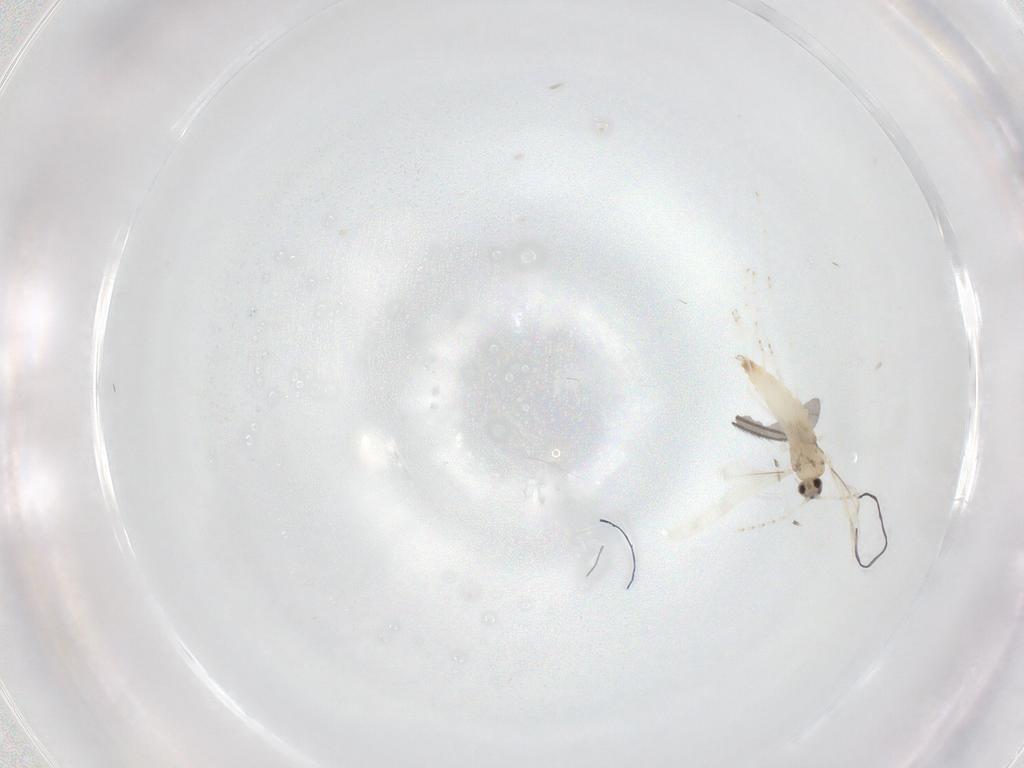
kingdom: Animalia
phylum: Arthropoda
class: Insecta
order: Diptera
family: Cecidomyiidae
